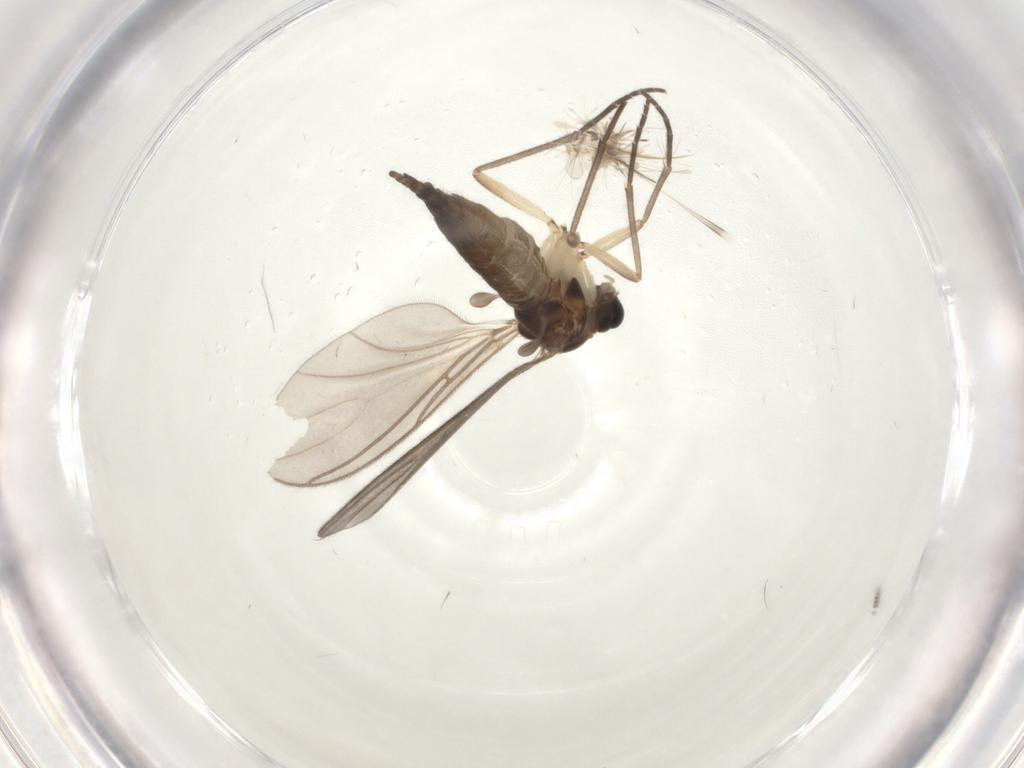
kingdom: Animalia
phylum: Arthropoda
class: Insecta
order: Diptera
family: Sciaridae
